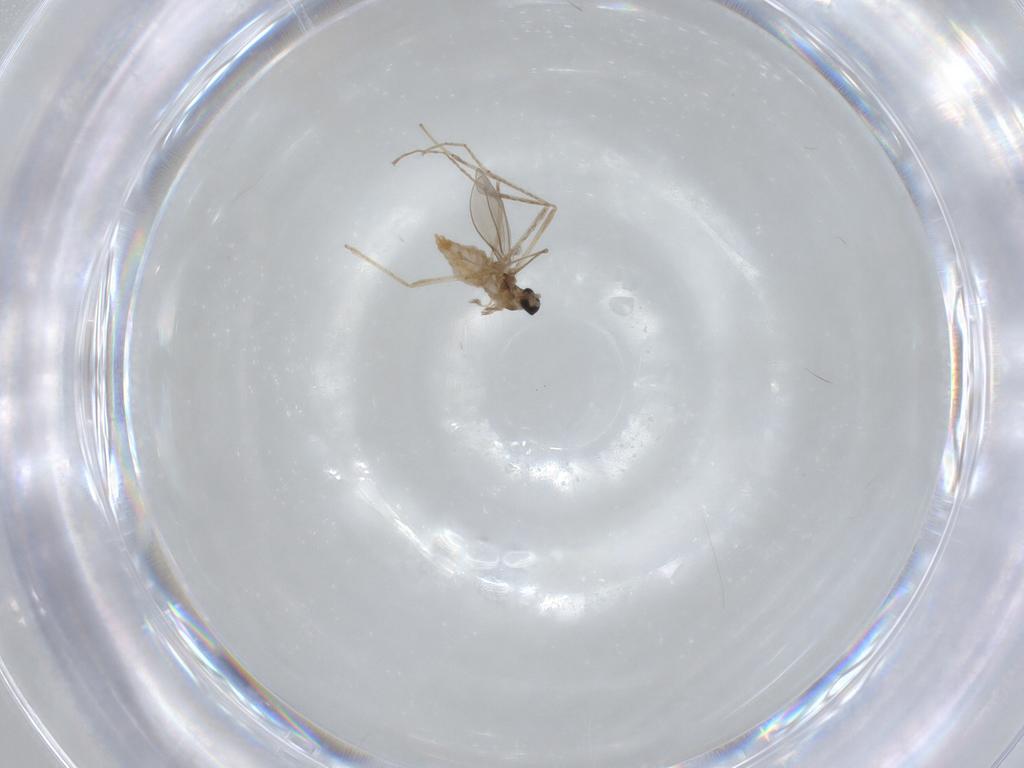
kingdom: Animalia
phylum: Arthropoda
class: Insecta
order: Diptera
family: Cecidomyiidae
